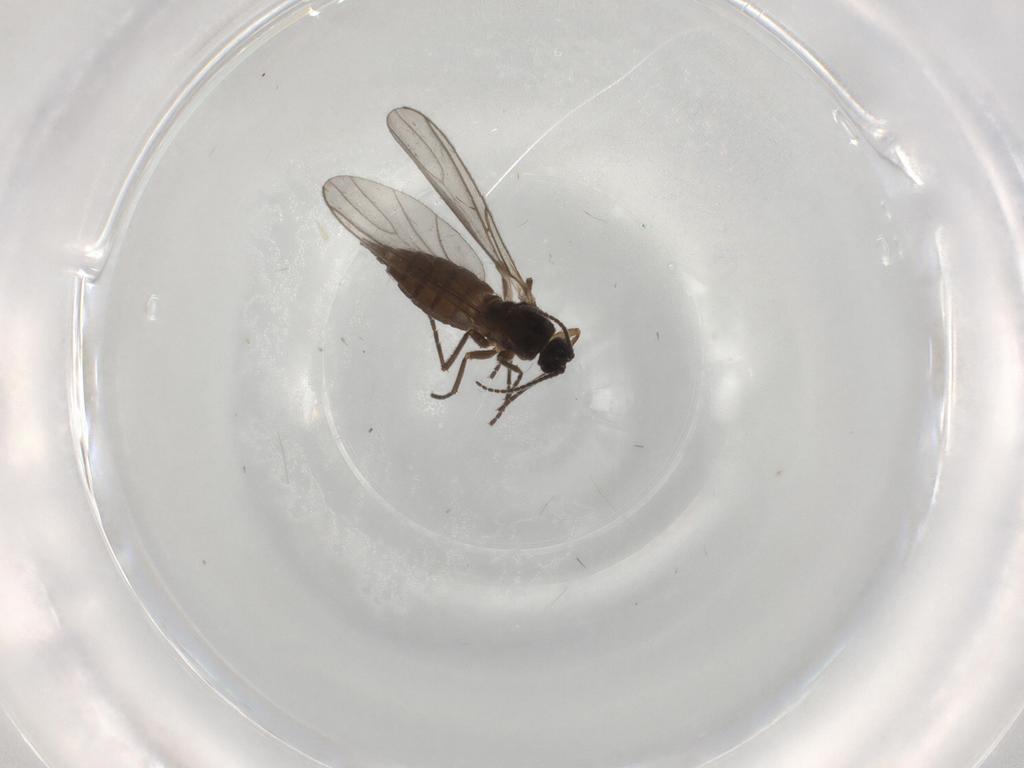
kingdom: Animalia
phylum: Arthropoda
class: Insecta
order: Diptera
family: Sciaridae
